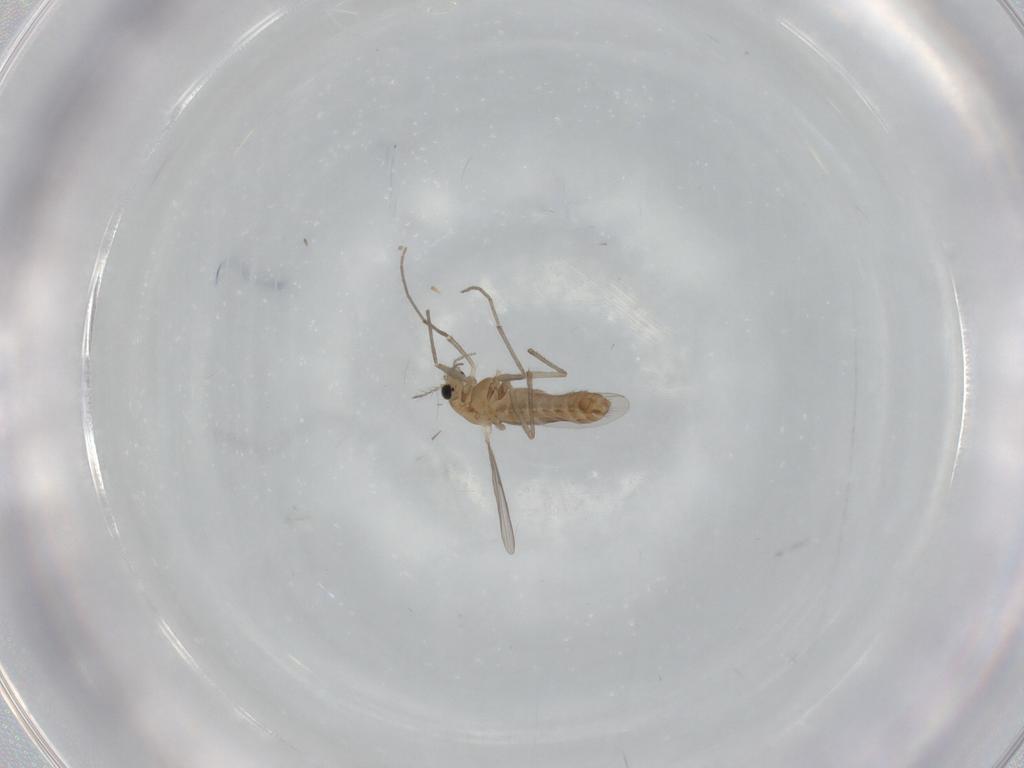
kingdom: Animalia
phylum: Arthropoda
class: Insecta
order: Diptera
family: Chironomidae
